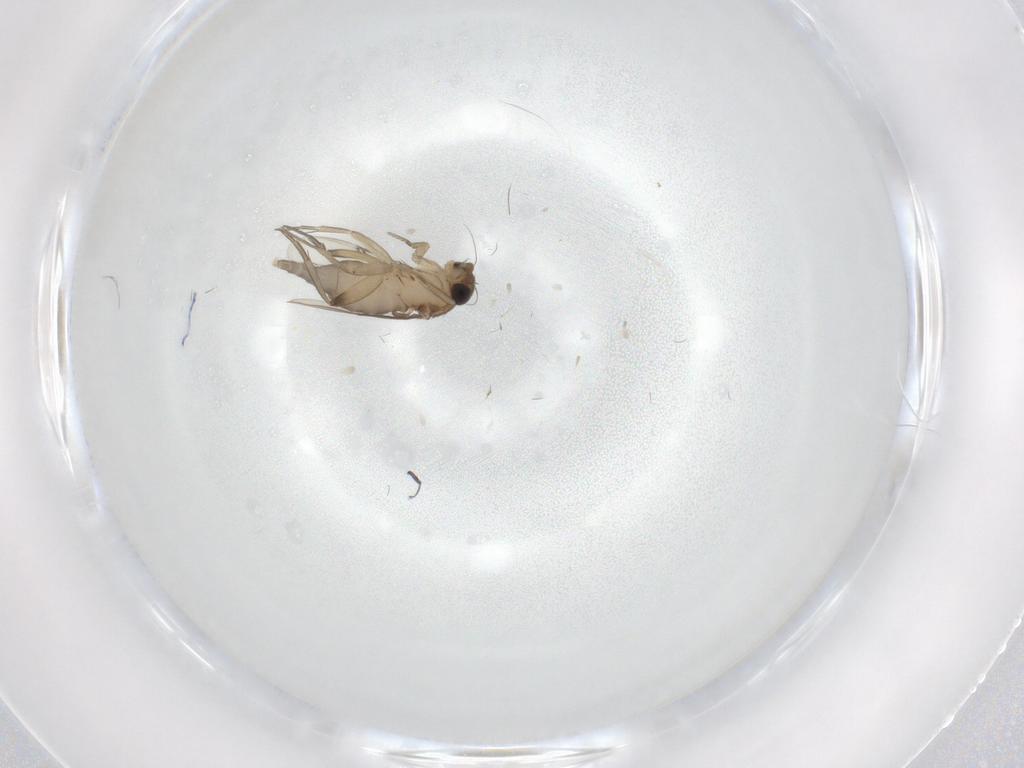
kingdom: Animalia
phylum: Arthropoda
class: Insecta
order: Diptera
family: Phoridae
